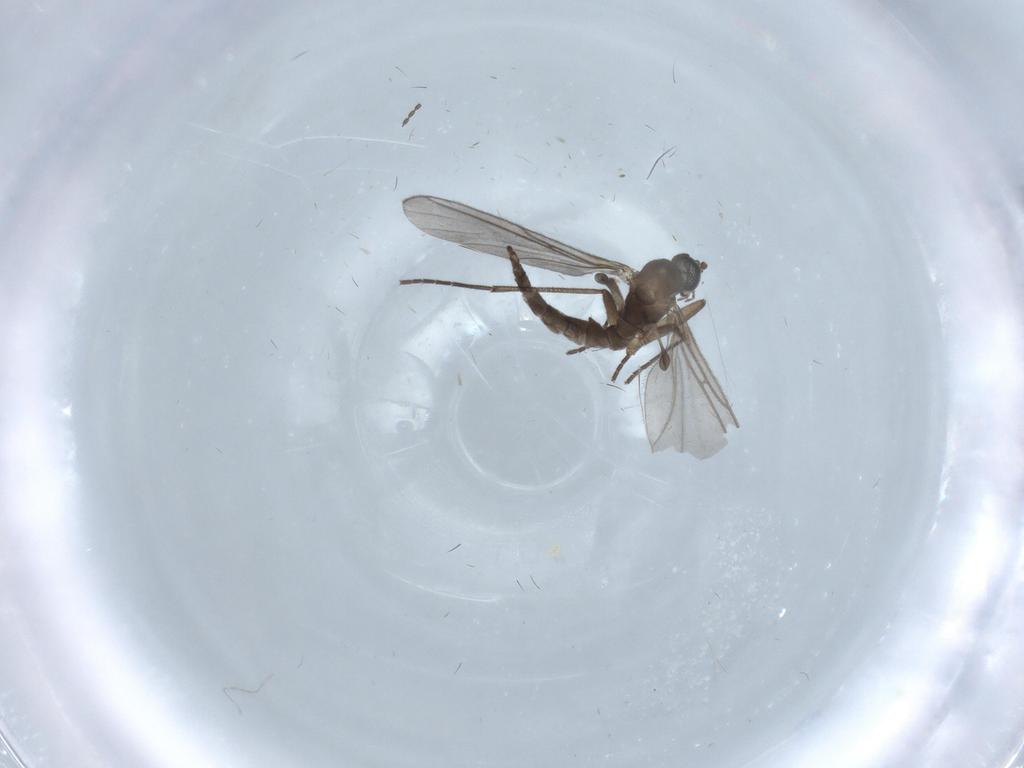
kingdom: Animalia
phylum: Arthropoda
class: Insecta
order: Diptera
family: Sciaridae
